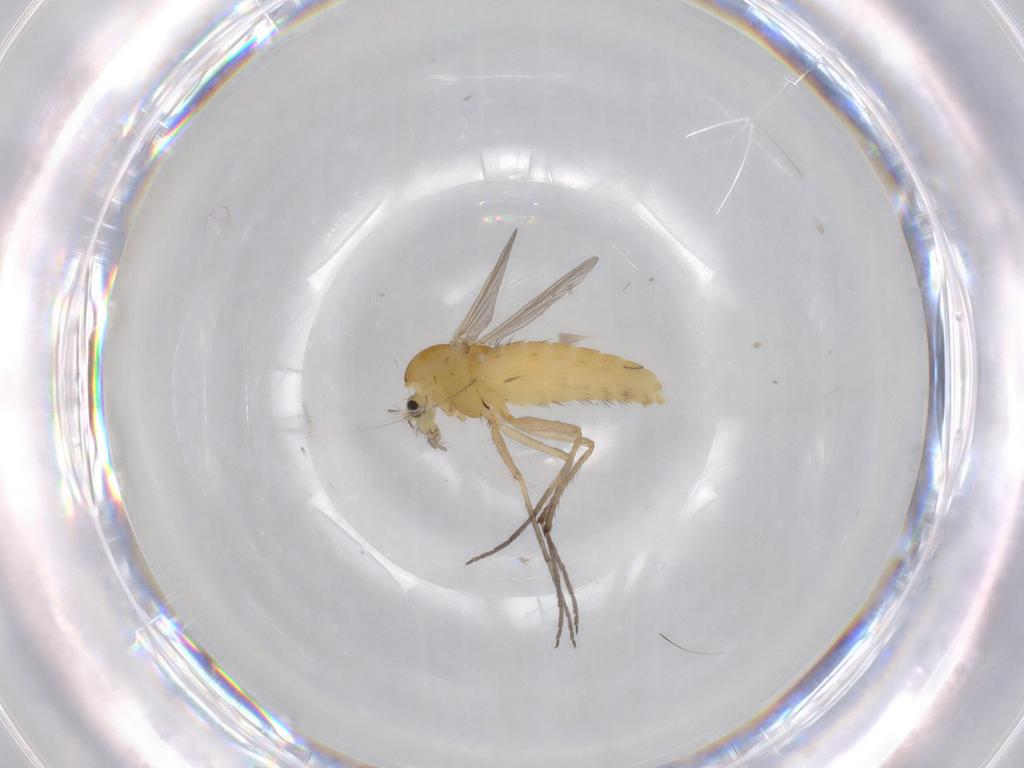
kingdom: Animalia
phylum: Arthropoda
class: Insecta
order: Diptera
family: Chironomidae
